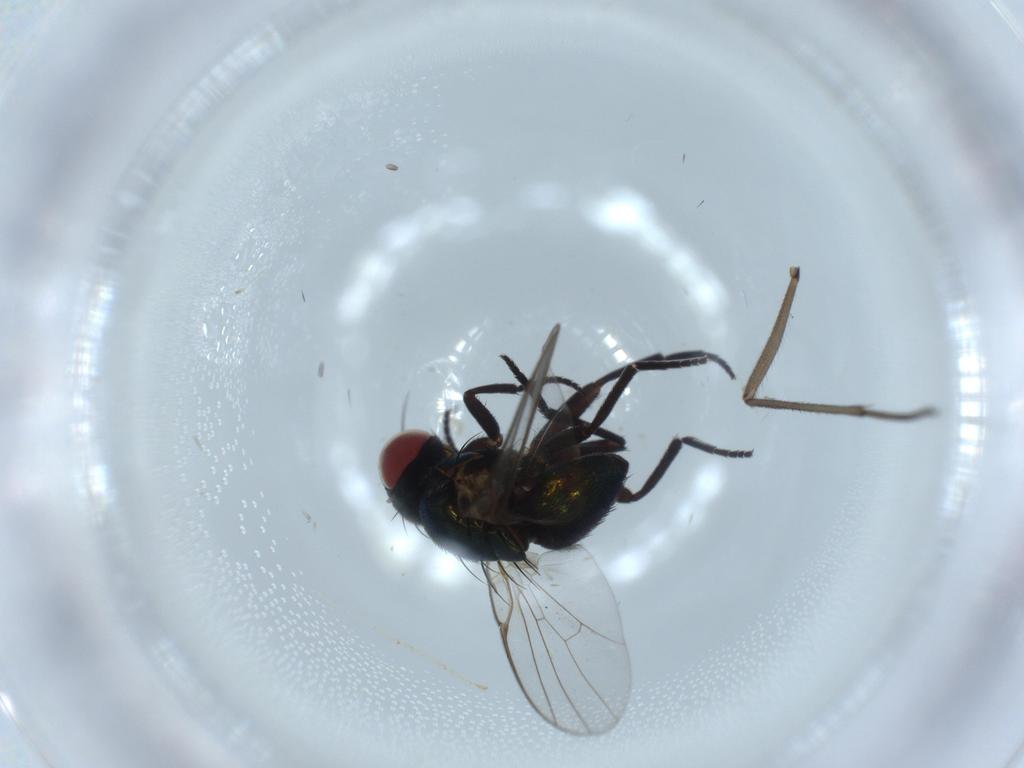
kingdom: Animalia
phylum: Arthropoda
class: Insecta
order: Diptera
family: Agromyzidae
